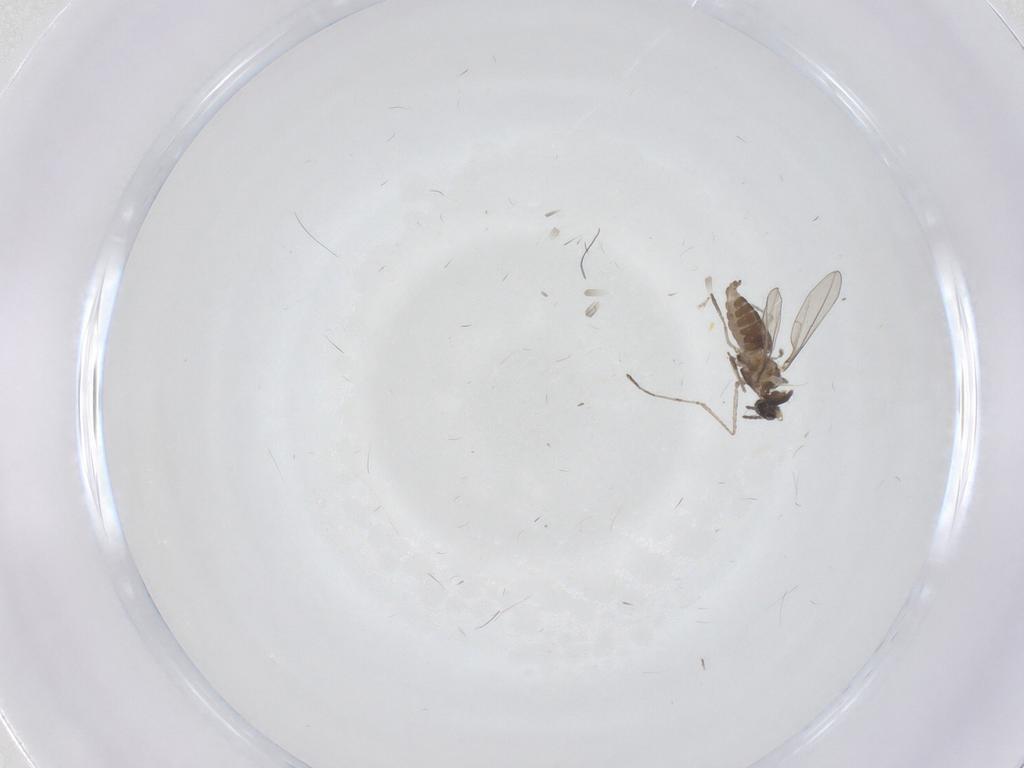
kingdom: Animalia
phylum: Arthropoda
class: Insecta
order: Diptera
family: Cecidomyiidae
